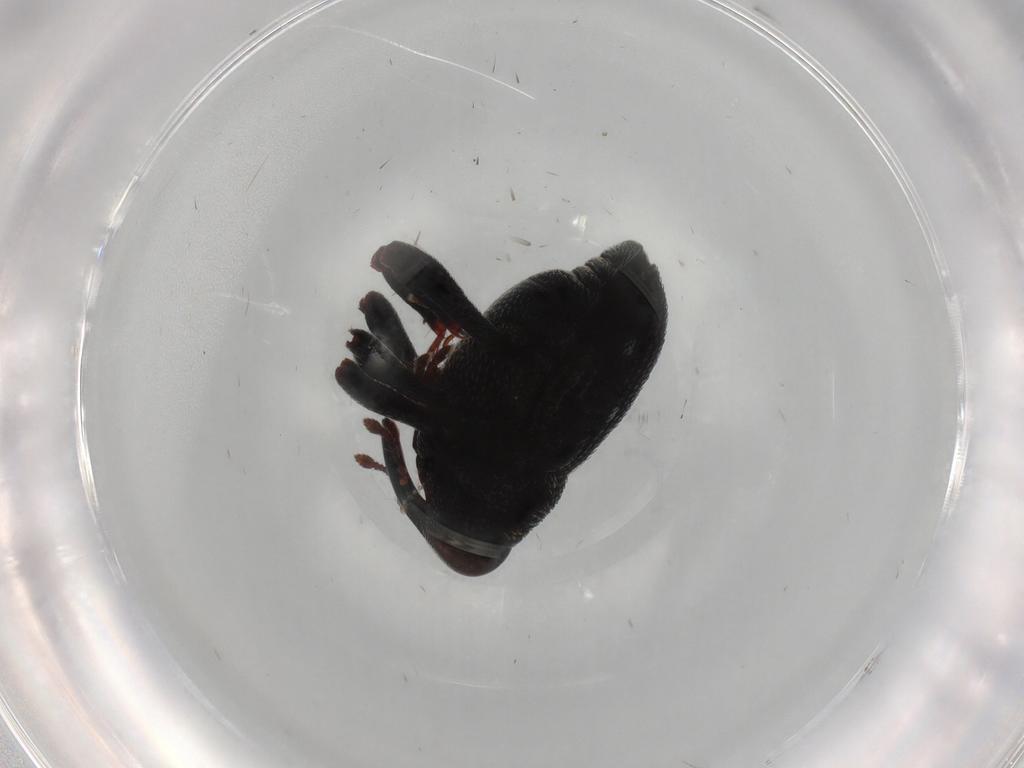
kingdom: Animalia
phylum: Arthropoda
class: Insecta
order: Coleoptera
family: Curculionidae
